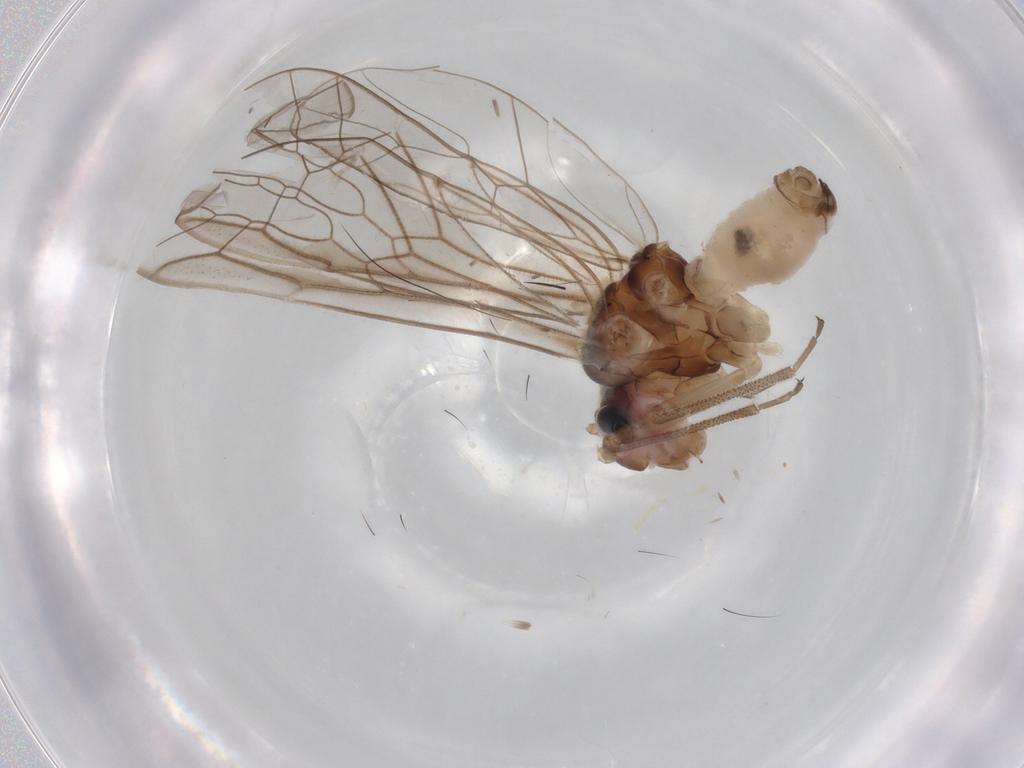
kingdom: Animalia
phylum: Arthropoda
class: Insecta
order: Psocodea
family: Stenopsocidae
